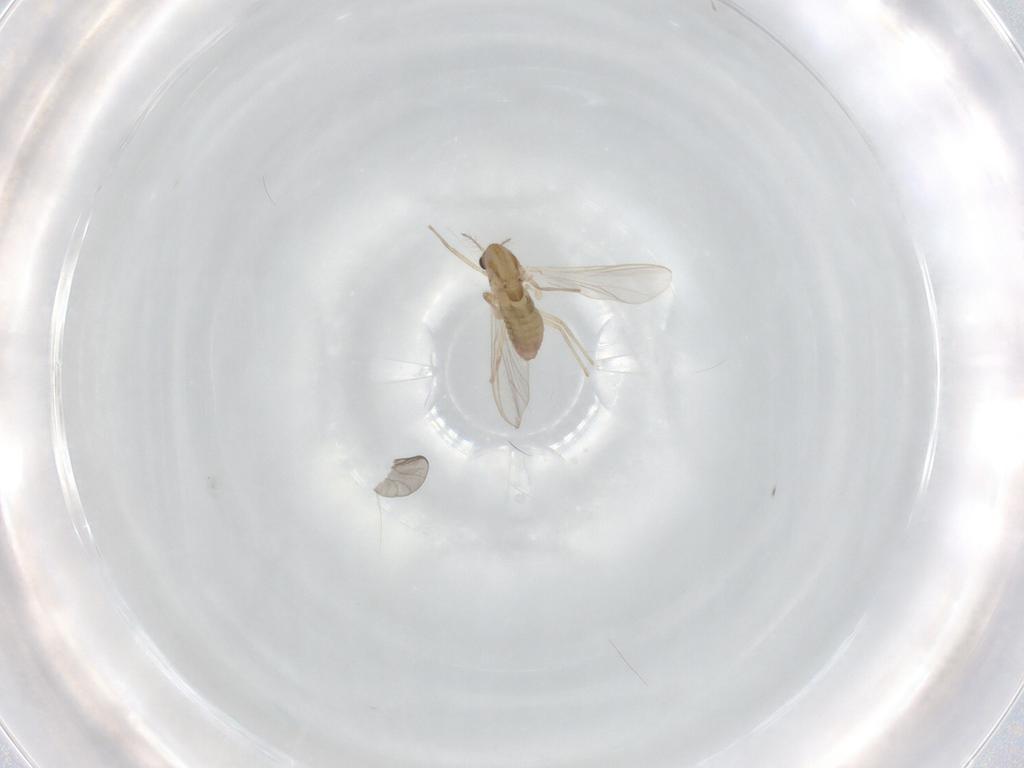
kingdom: Animalia
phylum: Arthropoda
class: Insecta
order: Diptera
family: Chironomidae
